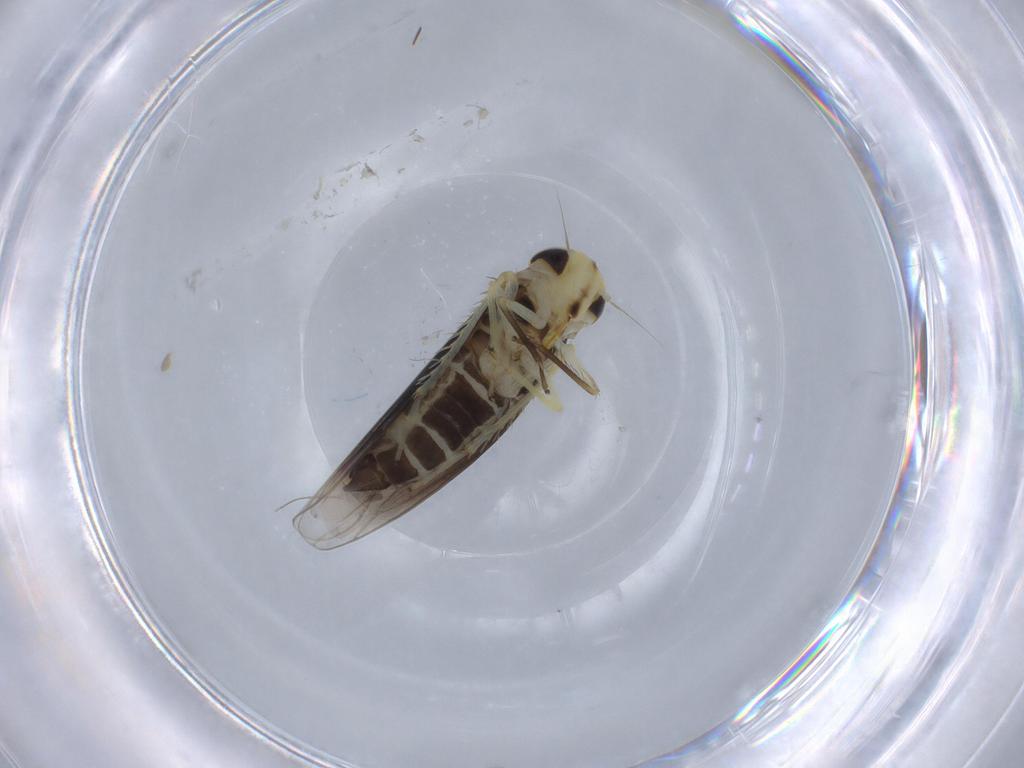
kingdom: Animalia
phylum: Arthropoda
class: Insecta
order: Hemiptera
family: Cicadellidae
